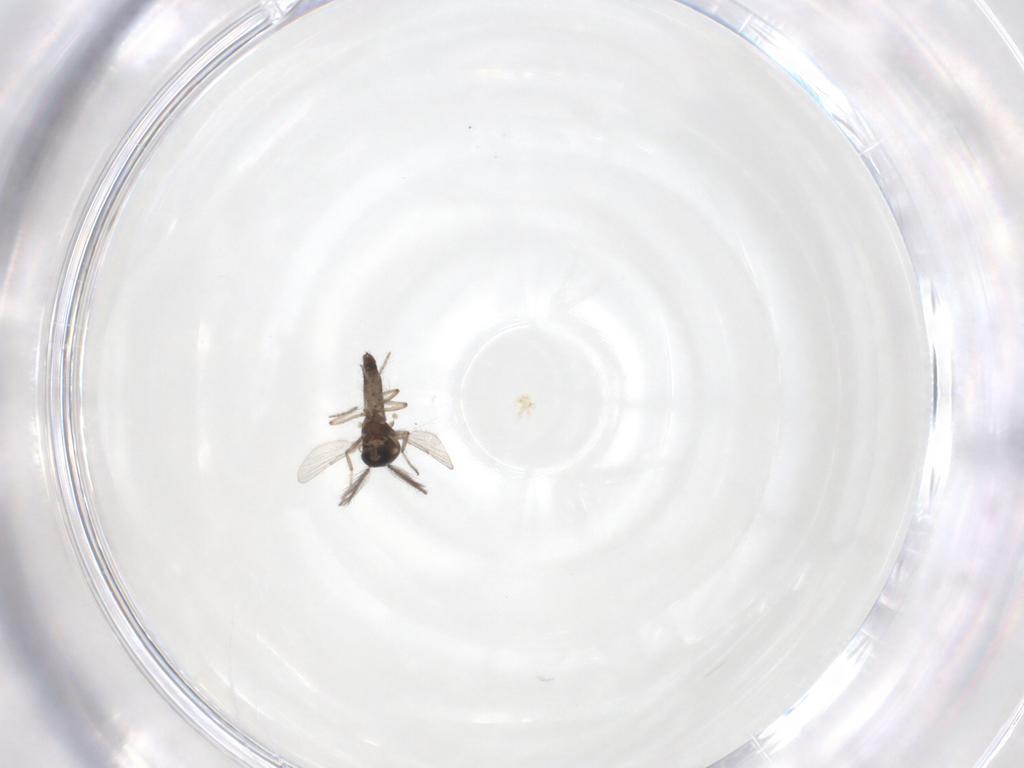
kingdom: Animalia
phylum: Arthropoda
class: Insecta
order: Diptera
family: Ceratopogonidae
